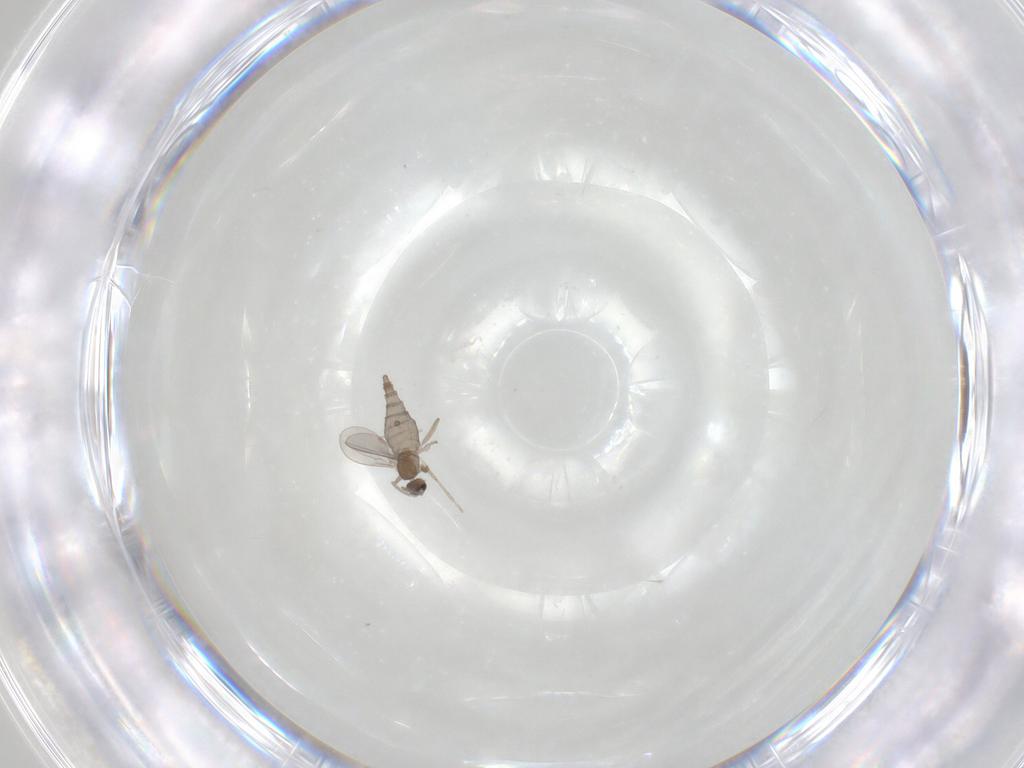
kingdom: Animalia
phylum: Arthropoda
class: Insecta
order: Diptera
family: Cecidomyiidae
